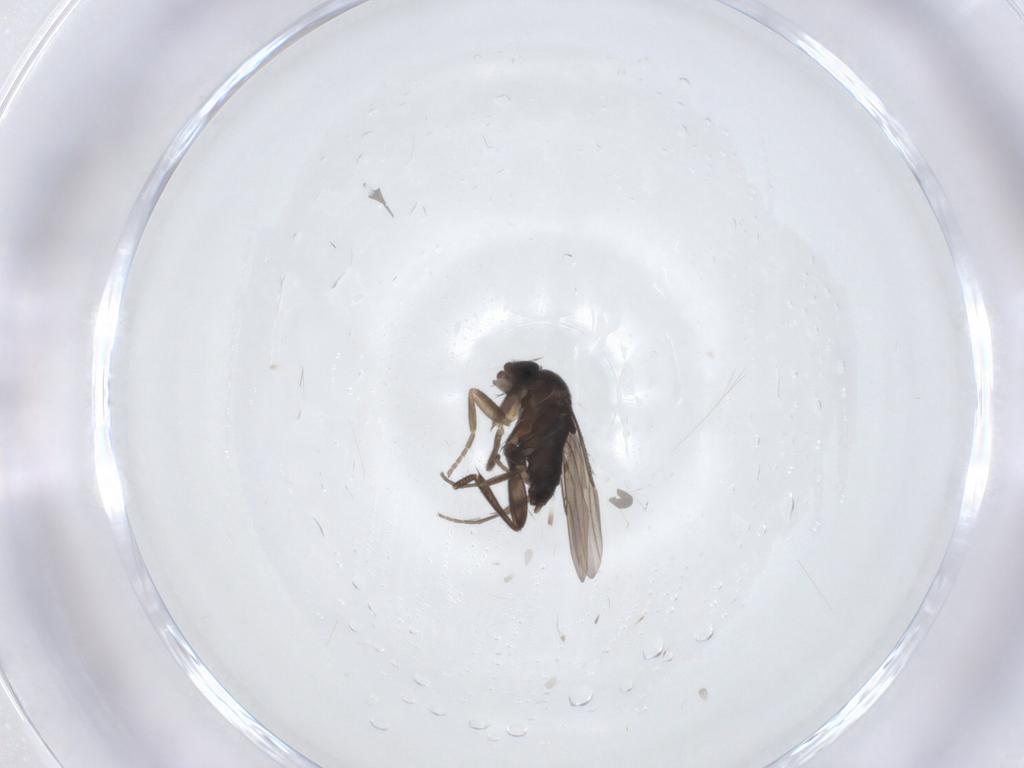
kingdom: Animalia
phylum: Arthropoda
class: Insecta
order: Diptera
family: Phoridae
